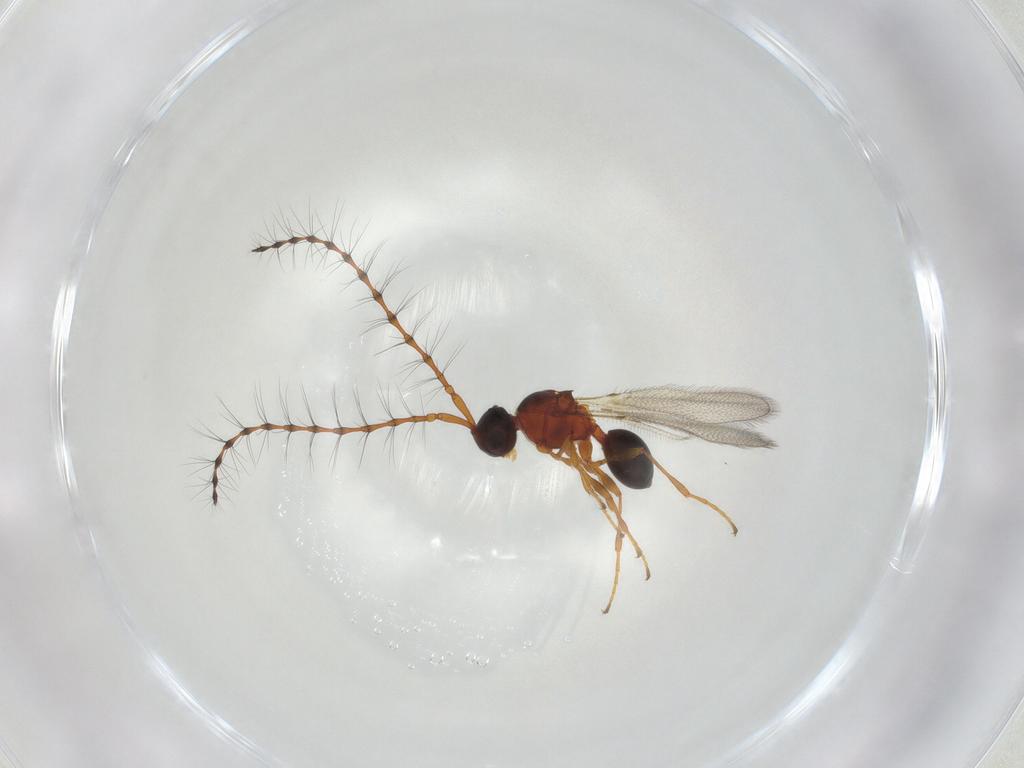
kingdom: Animalia
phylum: Arthropoda
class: Insecta
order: Hymenoptera
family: Diapriidae
